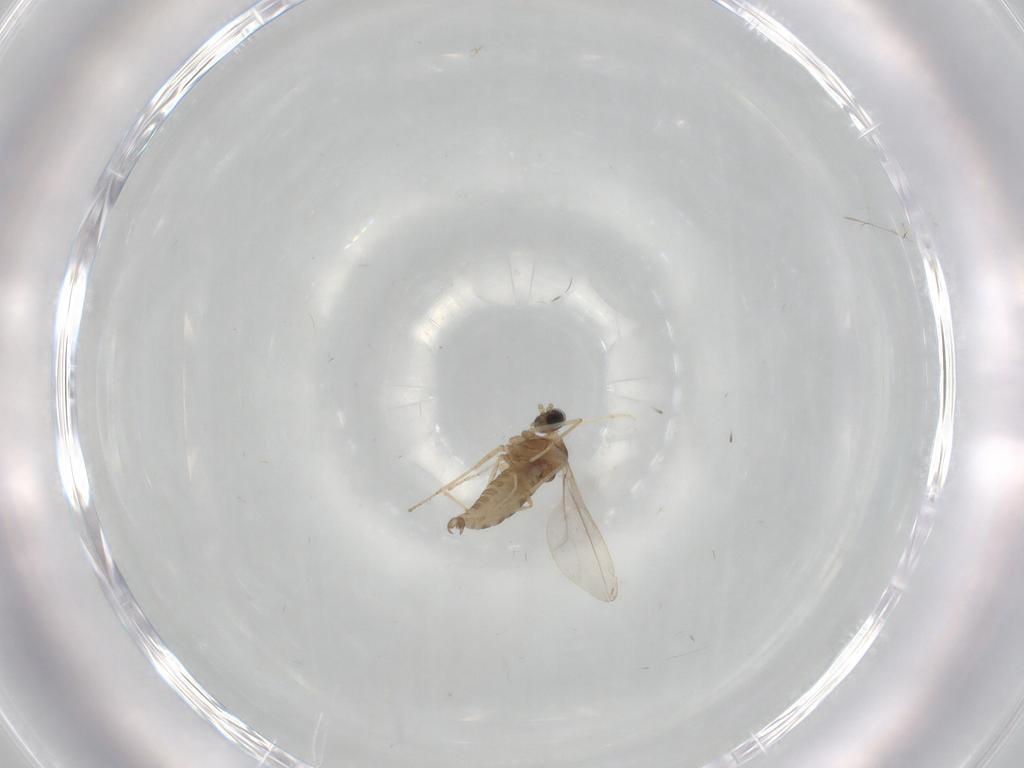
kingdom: Animalia
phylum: Arthropoda
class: Insecta
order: Diptera
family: Cecidomyiidae
